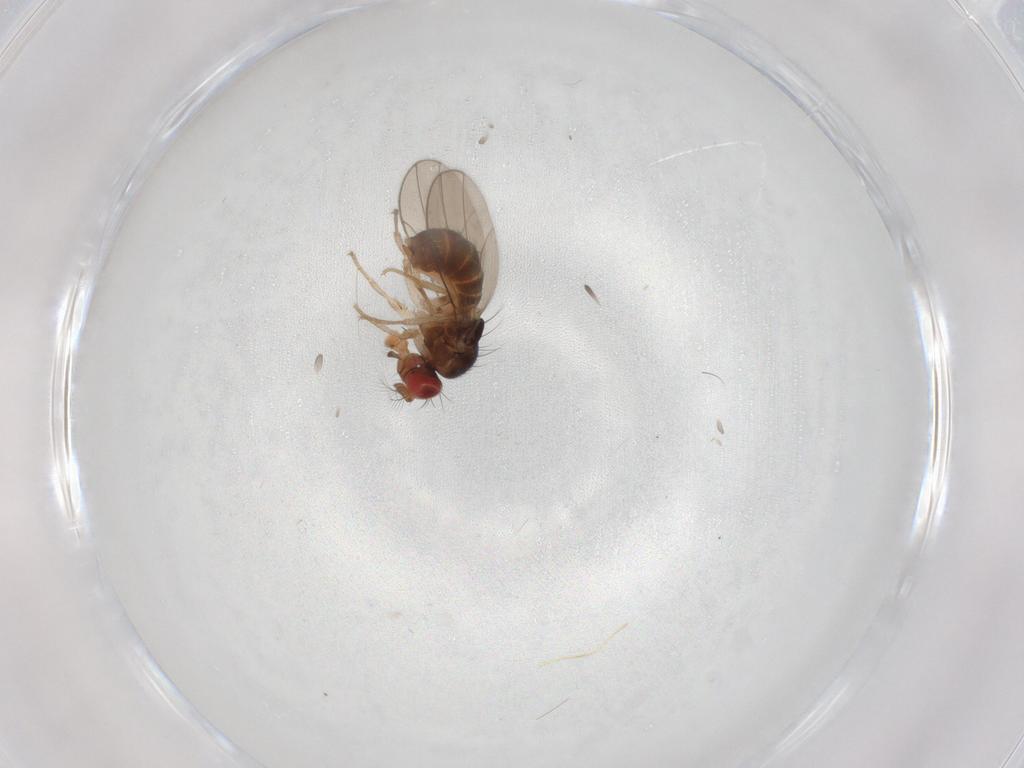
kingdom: Animalia
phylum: Arthropoda
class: Insecta
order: Diptera
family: Drosophilidae
